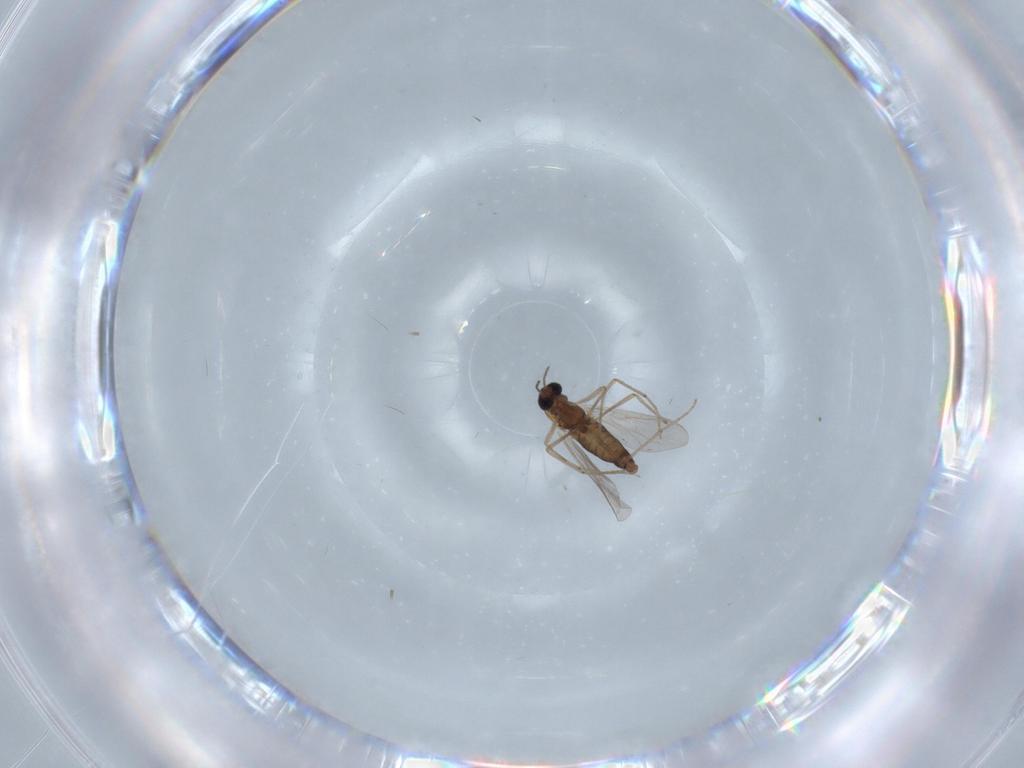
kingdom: Animalia
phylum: Arthropoda
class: Insecta
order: Diptera
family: Chironomidae
